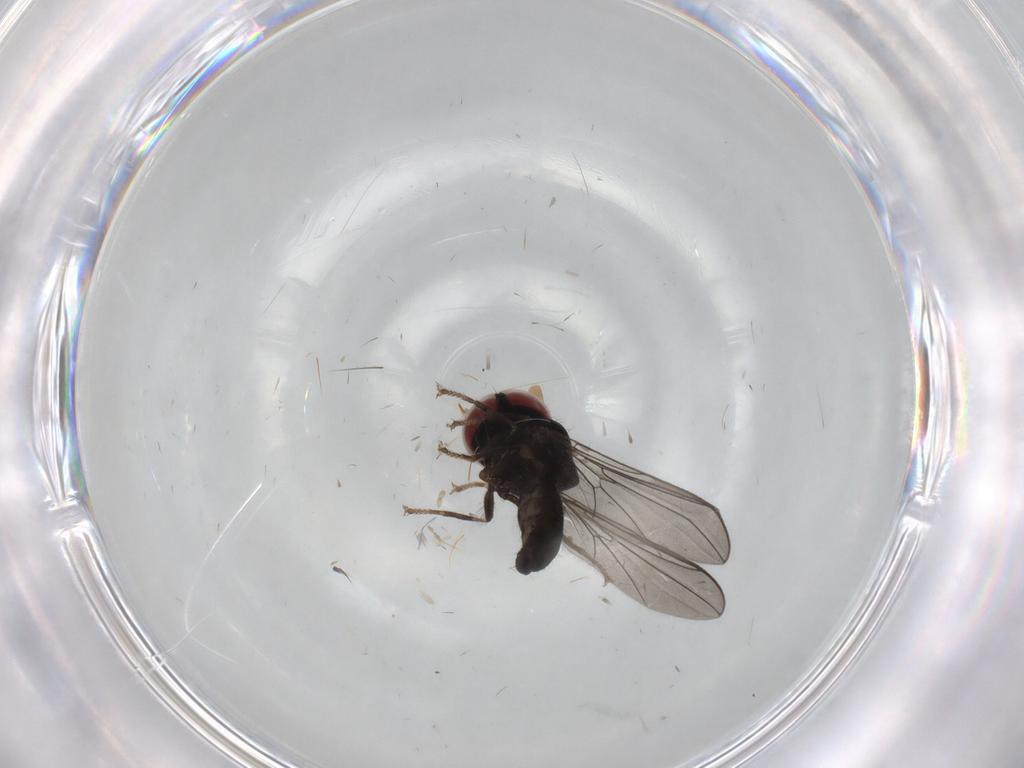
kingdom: Animalia
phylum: Arthropoda
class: Insecta
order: Diptera
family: Pipunculidae
